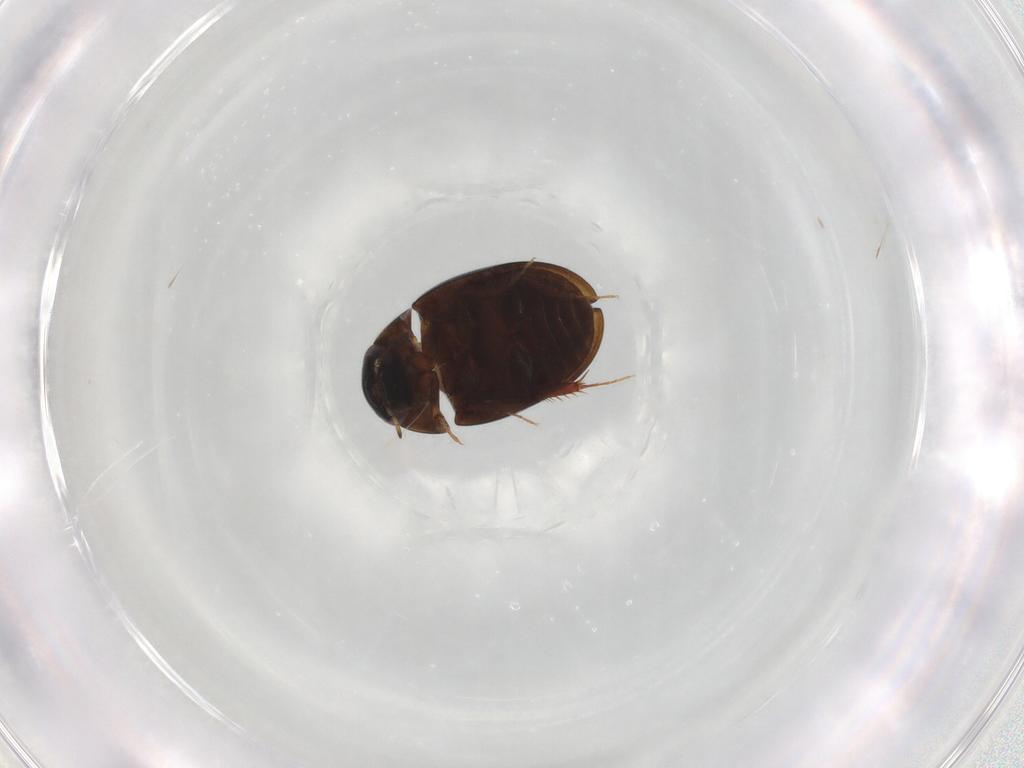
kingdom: Animalia
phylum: Arthropoda
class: Insecta
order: Coleoptera
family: Hydrophilidae
